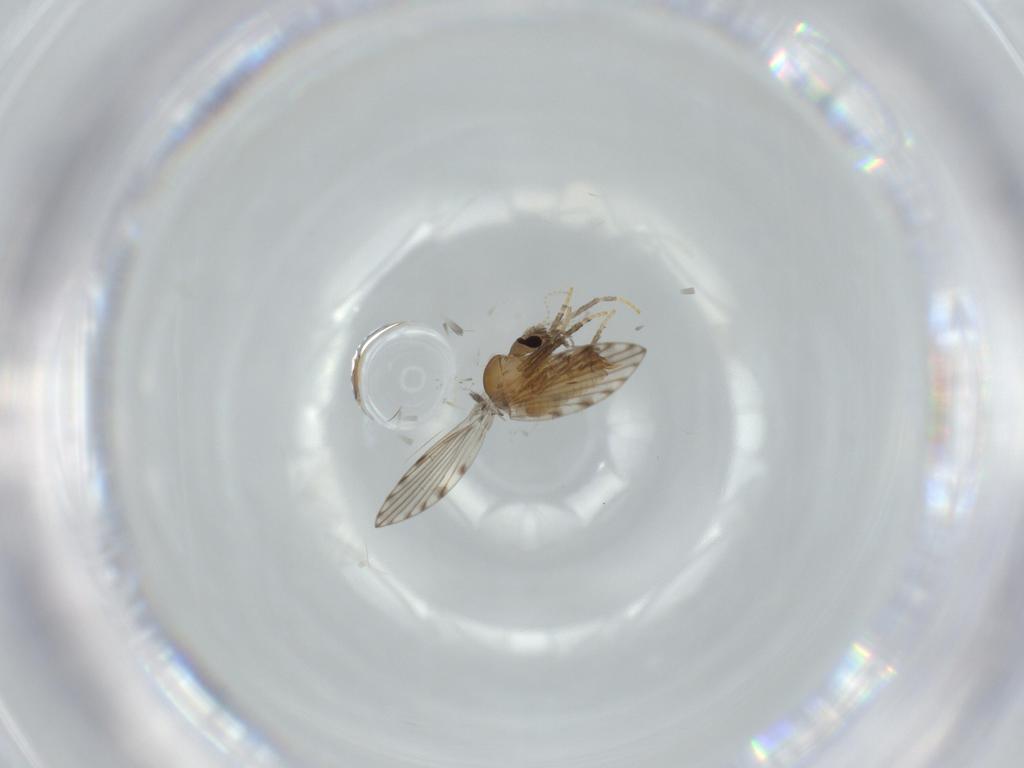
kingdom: Animalia
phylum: Arthropoda
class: Insecta
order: Diptera
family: Psychodidae
